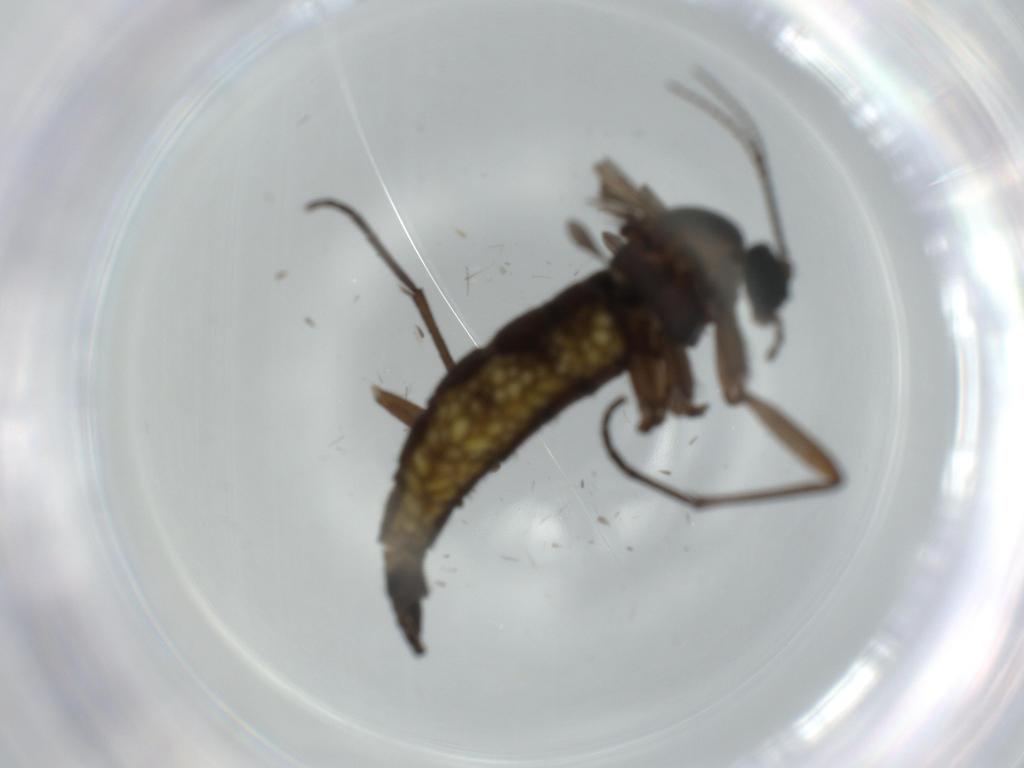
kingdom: Animalia
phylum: Arthropoda
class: Insecta
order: Diptera
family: Sciaridae
